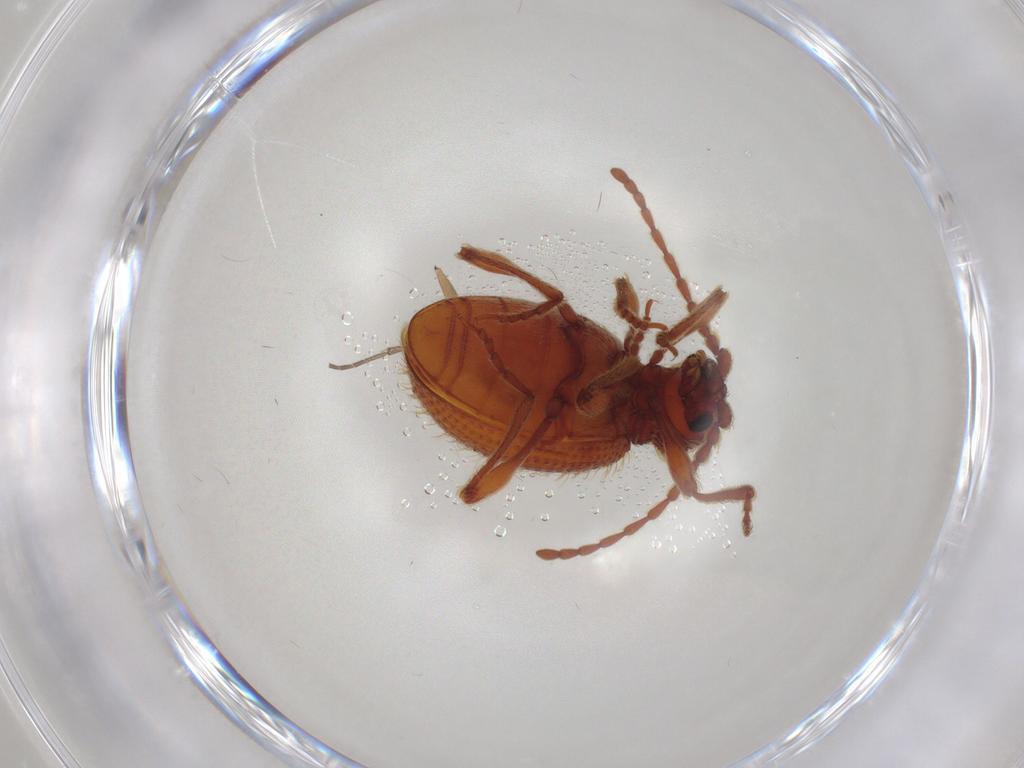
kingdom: Animalia
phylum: Arthropoda
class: Insecta
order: Coleoptera
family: Ptinidae
